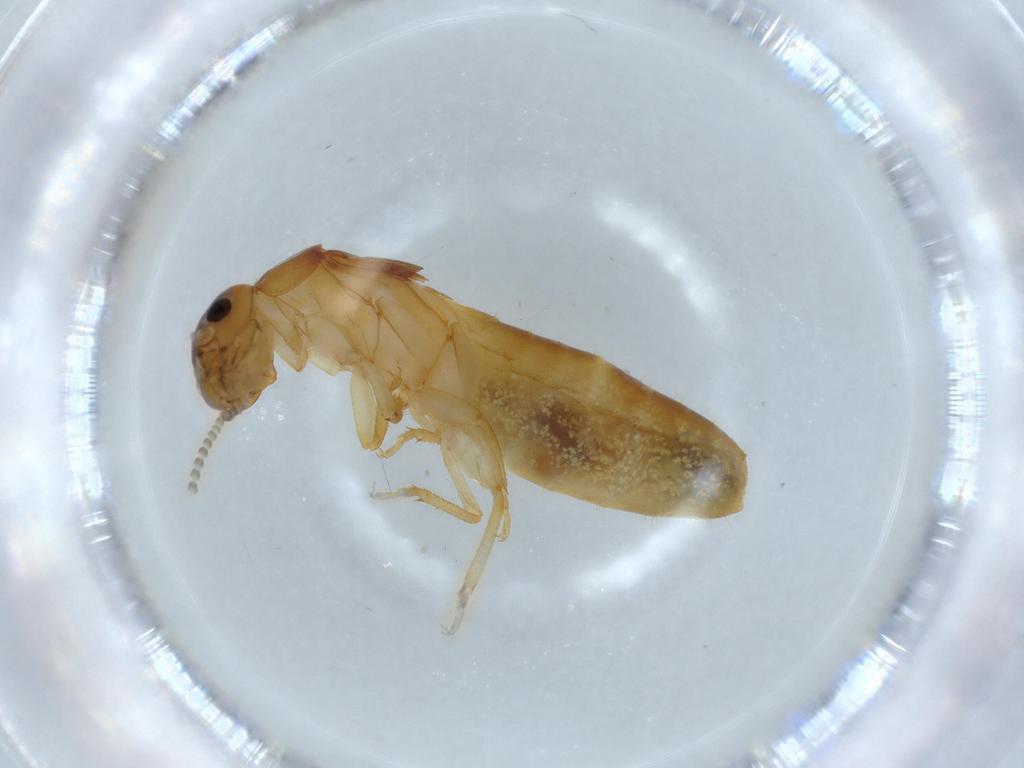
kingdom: Animalia
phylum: Arthropoda
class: Insecta
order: Blattodea
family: Kalotermitidae
